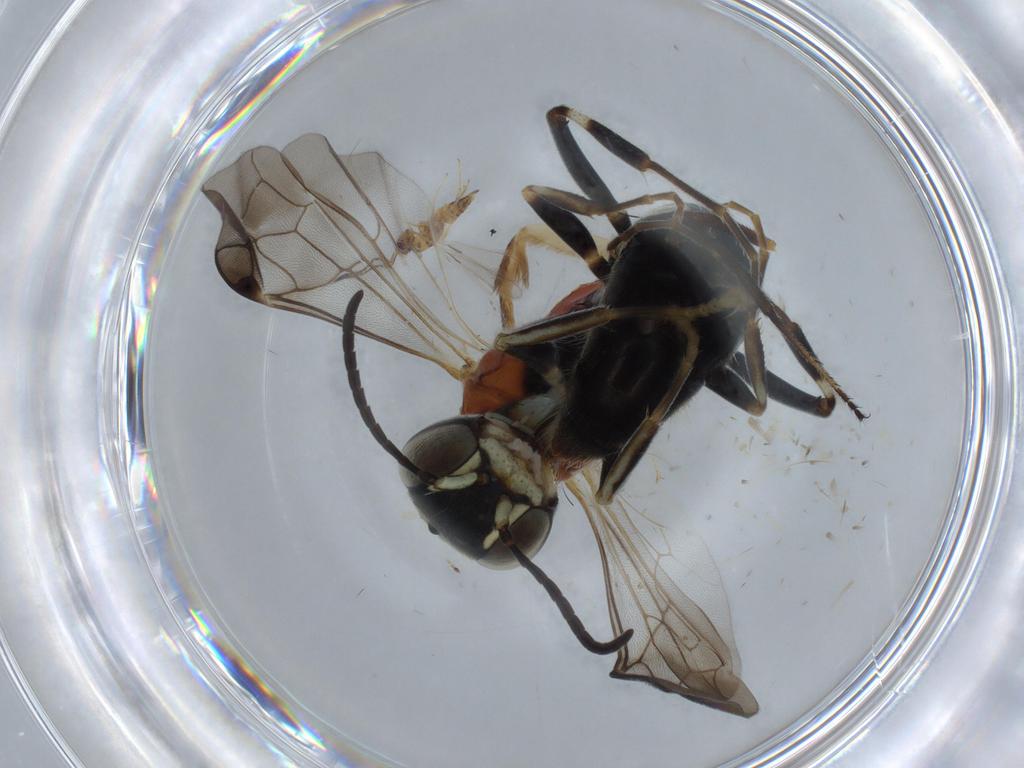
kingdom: Animalia
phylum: Arthropoda
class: Insecta
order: Hymenoptera
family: Bembicidae
